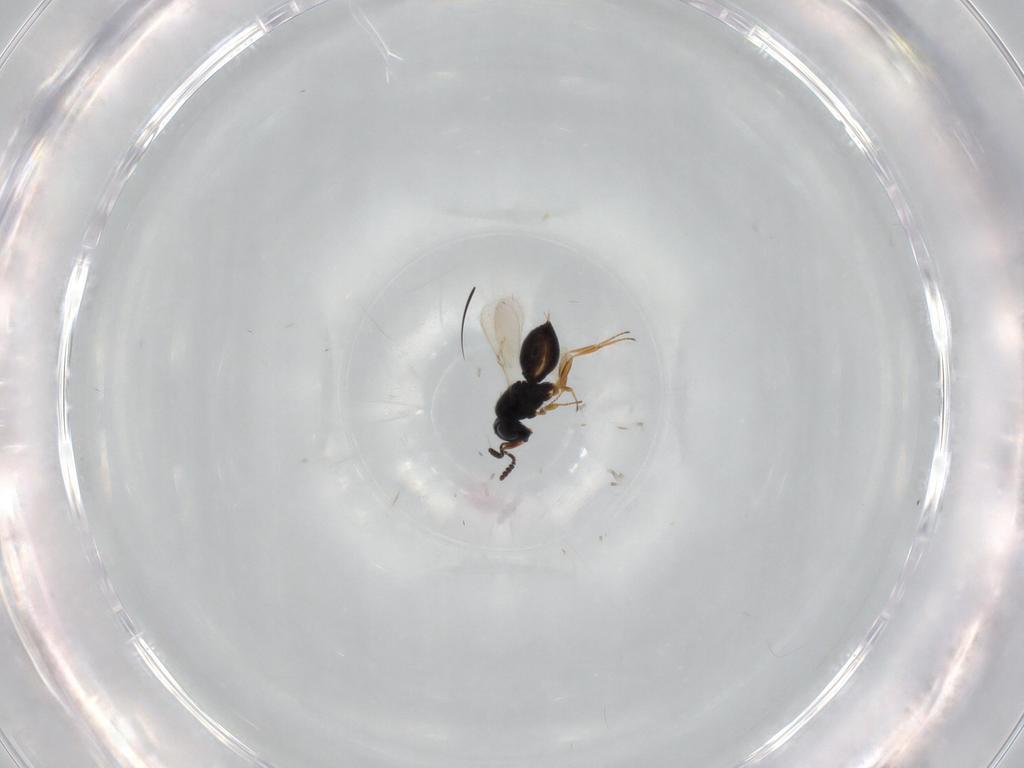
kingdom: Animalia
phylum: Arthropoda
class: Insecta
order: Hymenoptera
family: Scelionidae
